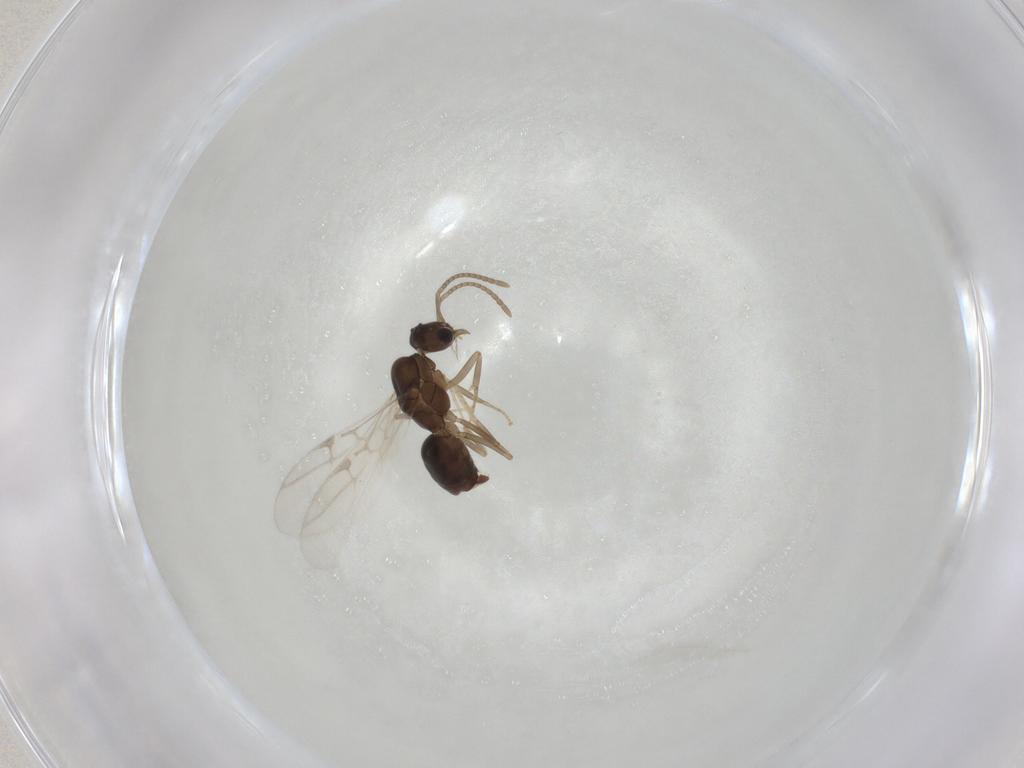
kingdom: Animalia
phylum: Arthropoda
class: Insecta
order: Hymenoptera
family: Formicidae
